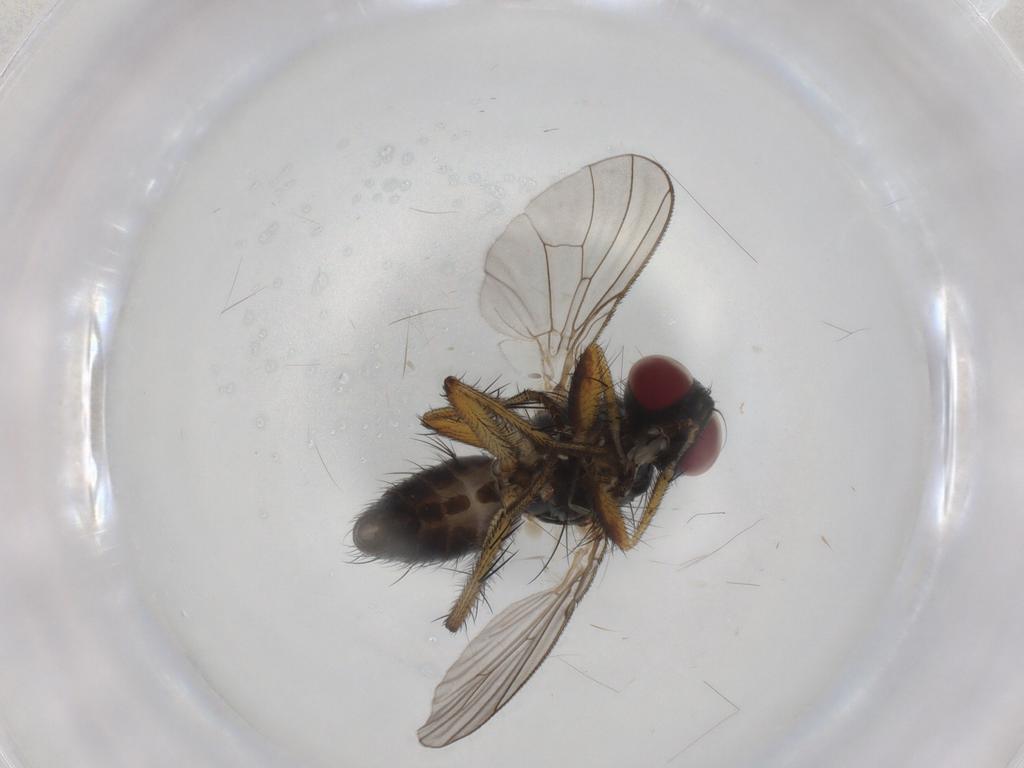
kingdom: Animalia
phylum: Arthropoda
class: Insecta
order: Diptera
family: Muscidae
